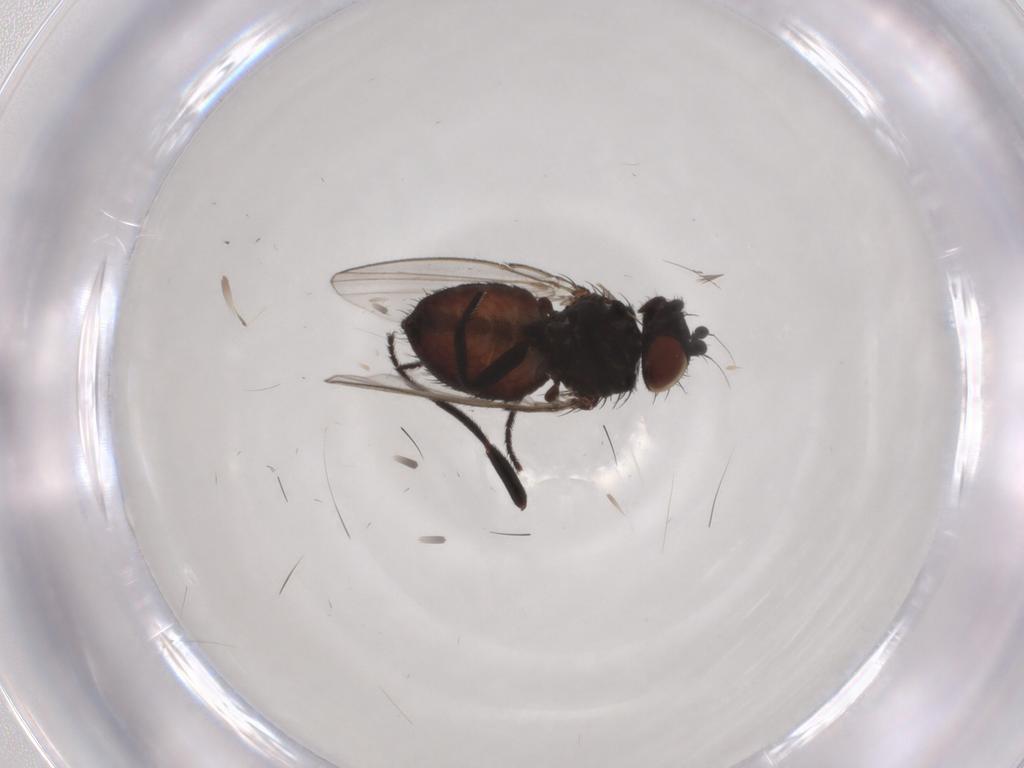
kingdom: Animalia
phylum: Arthropoda
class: Insecta
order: Diptera
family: Milichiidae
